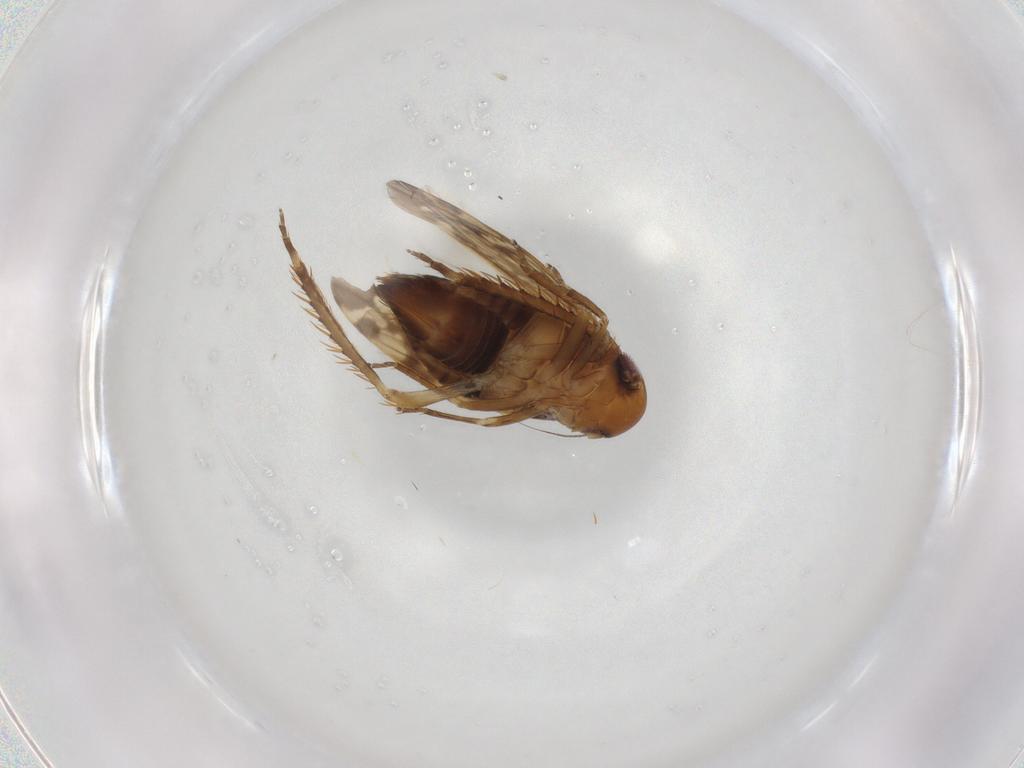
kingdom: Animalia
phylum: Arthropoda
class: Insecta
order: Hemiptera
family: Cicadellidae
